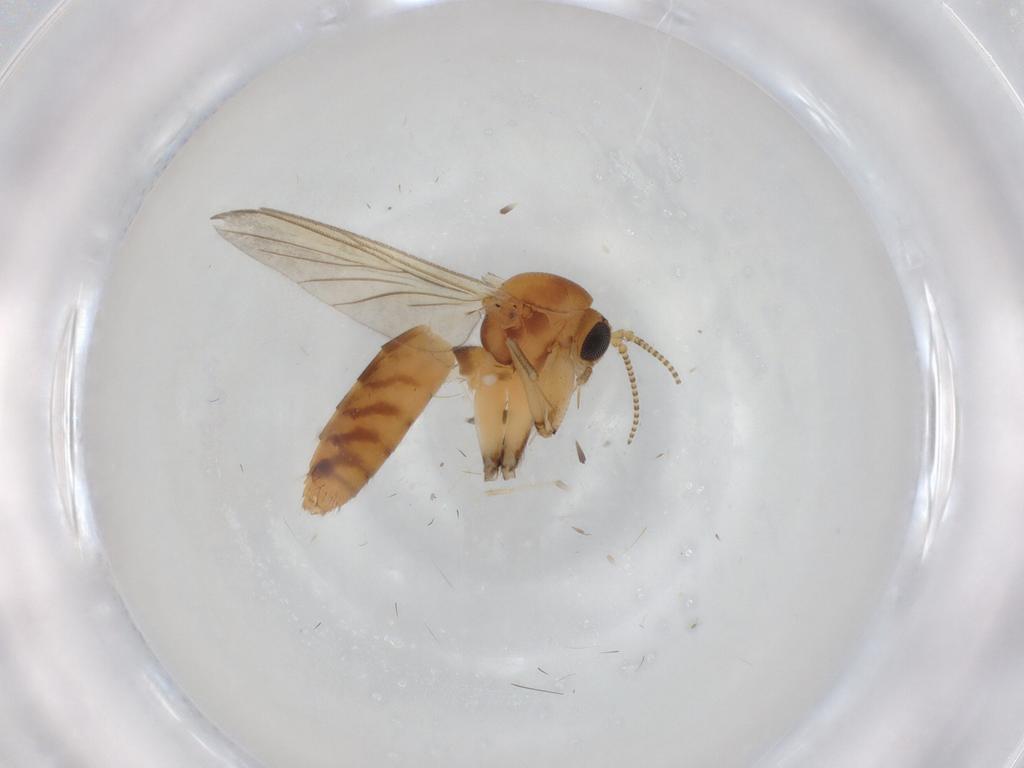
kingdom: Animalia
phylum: Arthropoda
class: Insecta
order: Diptera
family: Mycetophilidae
